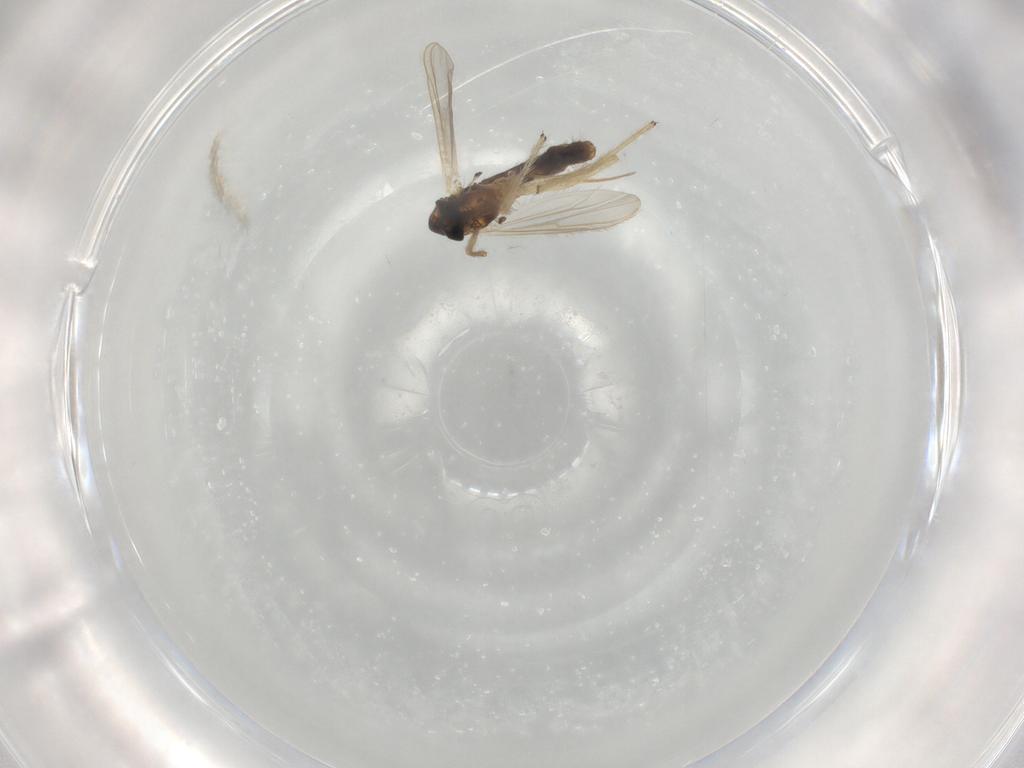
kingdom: Animalia
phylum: Arthropoda
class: Insecta
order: Diptera
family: Chironomidae
